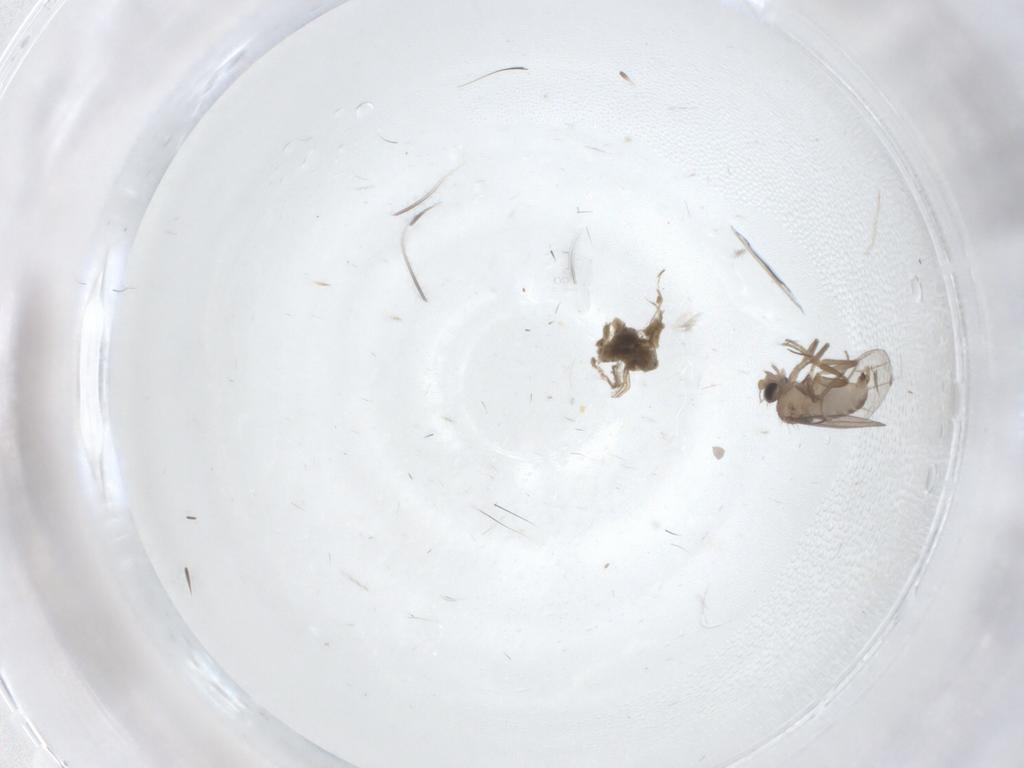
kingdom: Animalia
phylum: Arthropoda
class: Insecta
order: Diptera
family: Tipulidae
